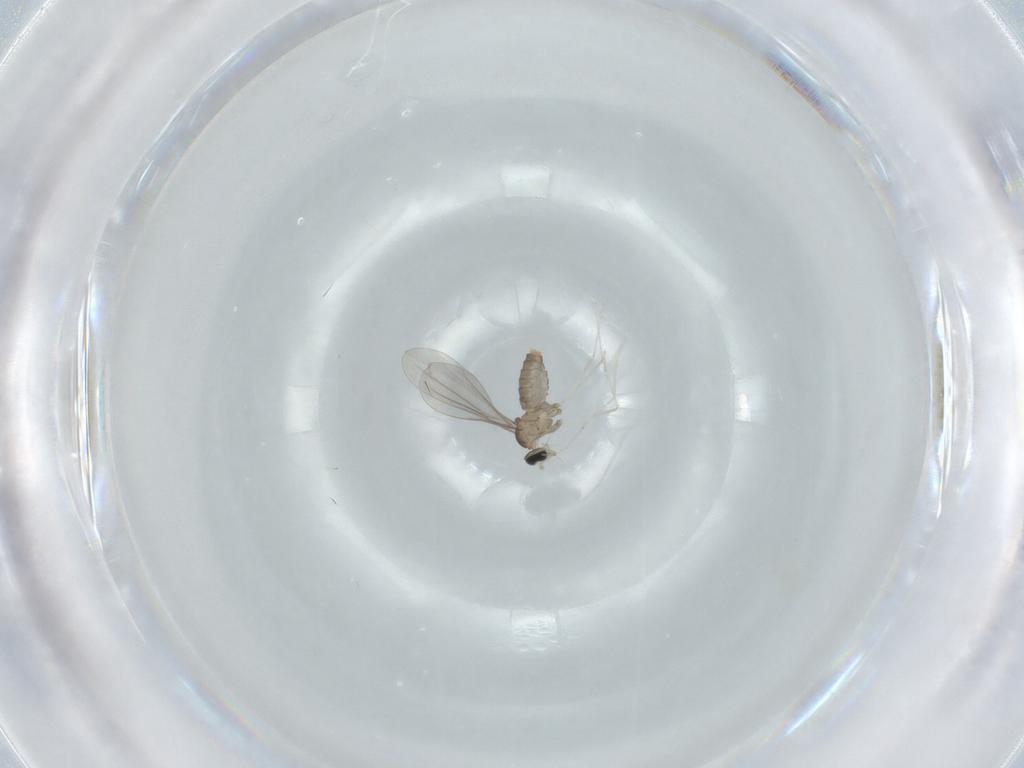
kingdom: Animalia
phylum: Arthropoda
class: Insecta
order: Diptera
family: Cecidomyiidae
